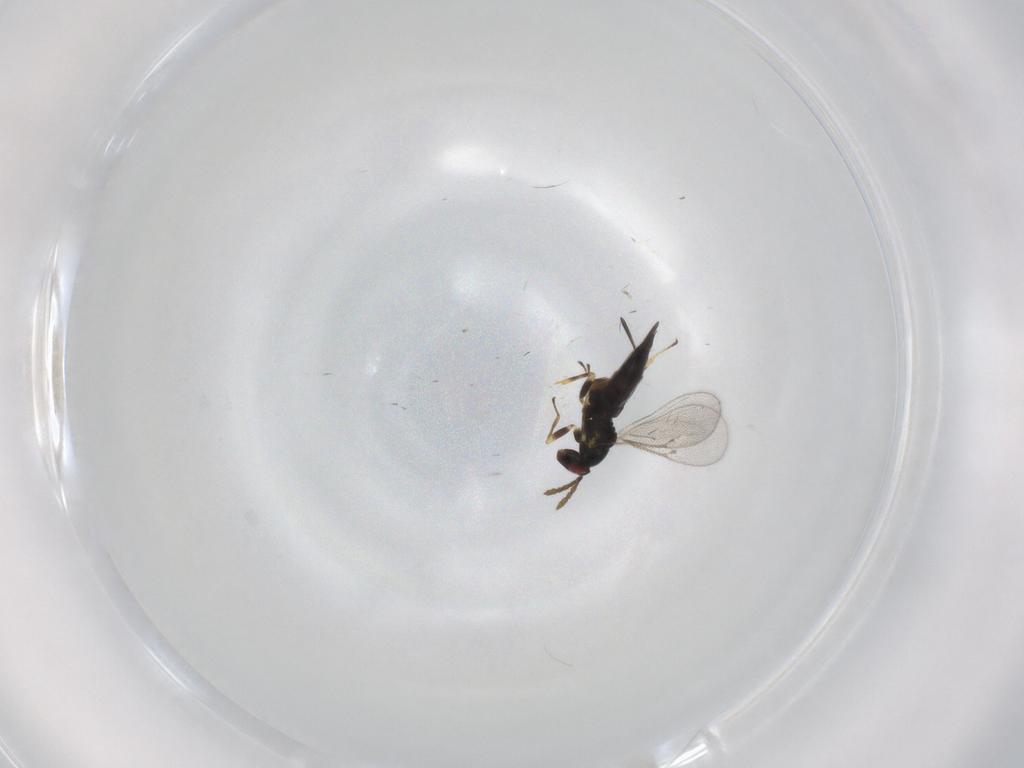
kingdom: Animalia
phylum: Arthropoda
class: Insecta
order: Hymenoptera
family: Eulophidae
